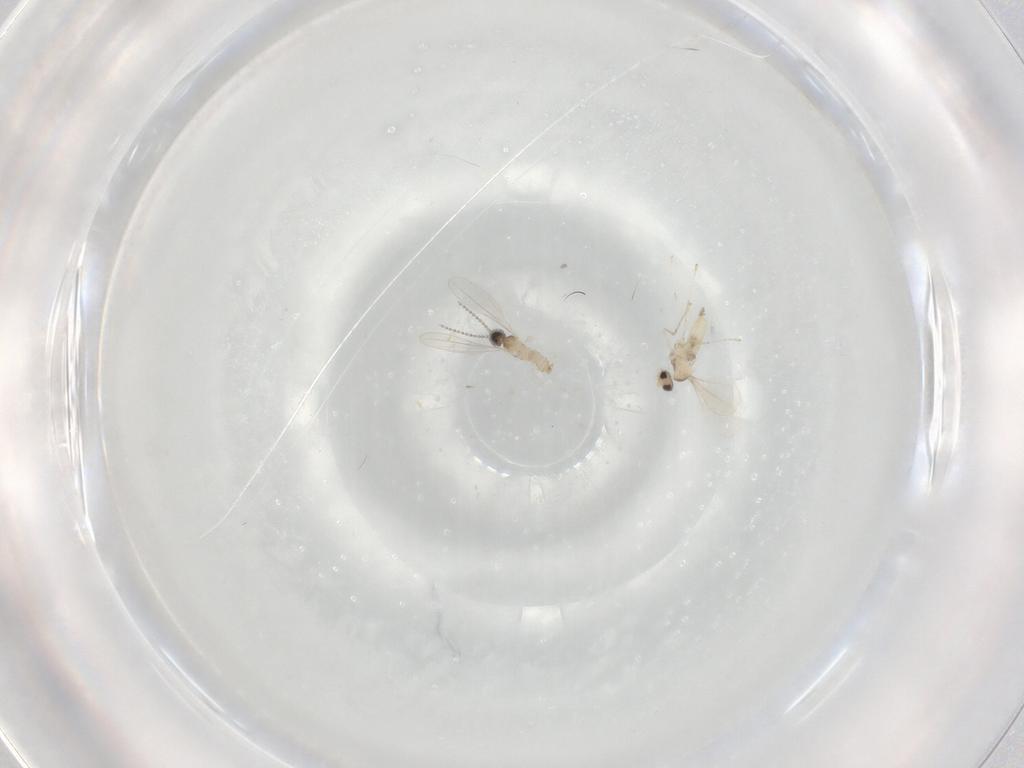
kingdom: Animalia
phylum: Arthropoda
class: Insecta
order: Diptera
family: Cecidomyiidae
